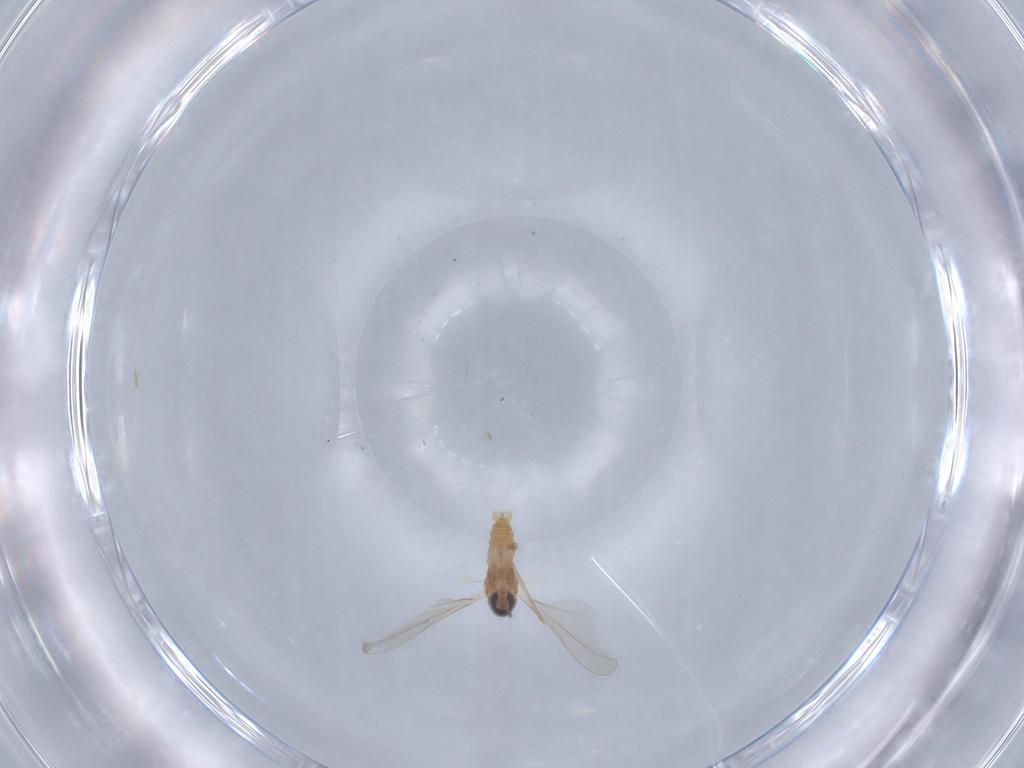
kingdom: Animalia
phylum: Arthropoda
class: Insecta
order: Diptera
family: Cecidomyiidae
